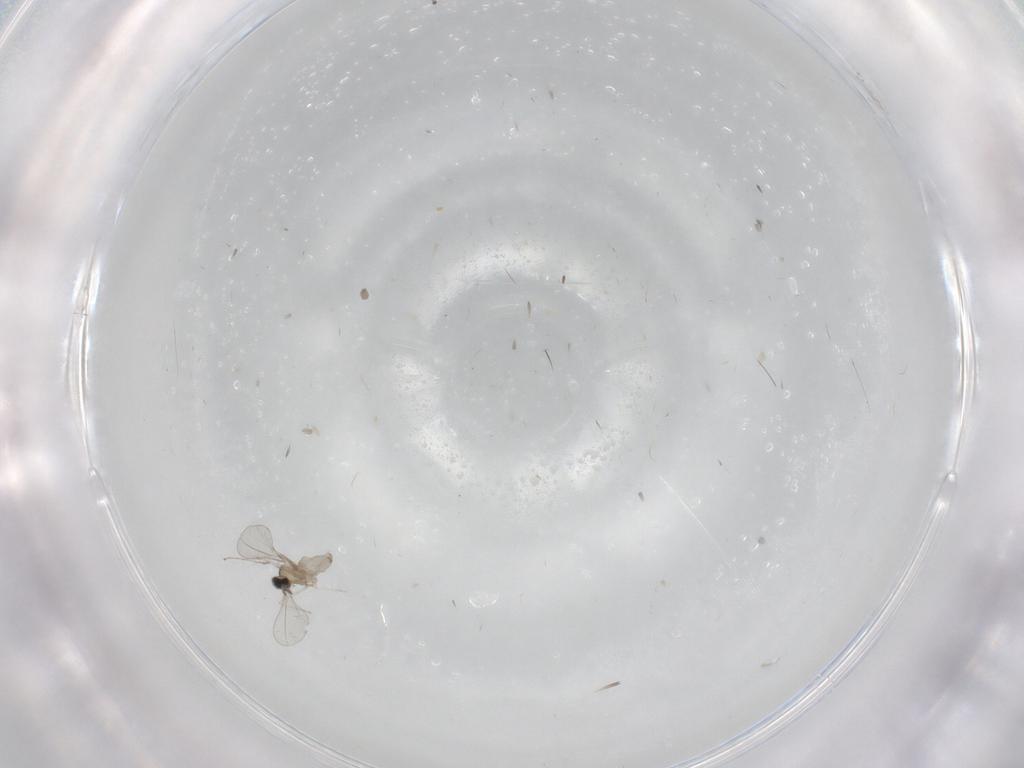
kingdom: Animalia
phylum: Arthropoda
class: Insecta
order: Diptera
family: Cecidomyiidae
